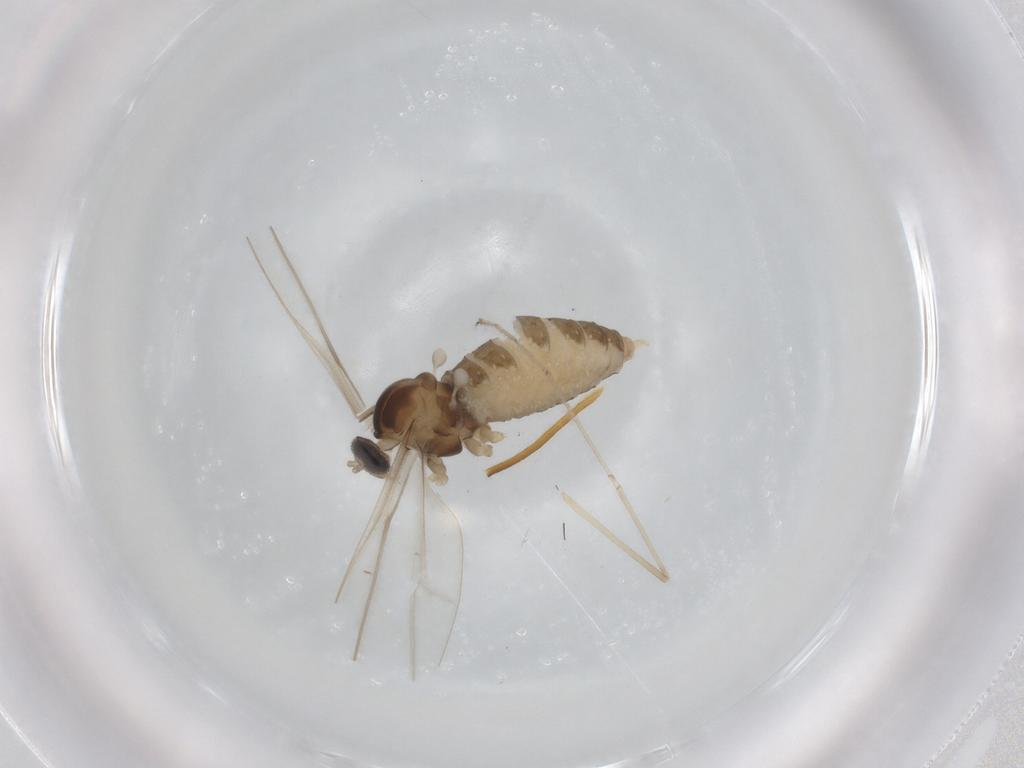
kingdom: Animalia
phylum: Arthropoda
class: Insecta
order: Diptera
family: Cecidomyiidae
